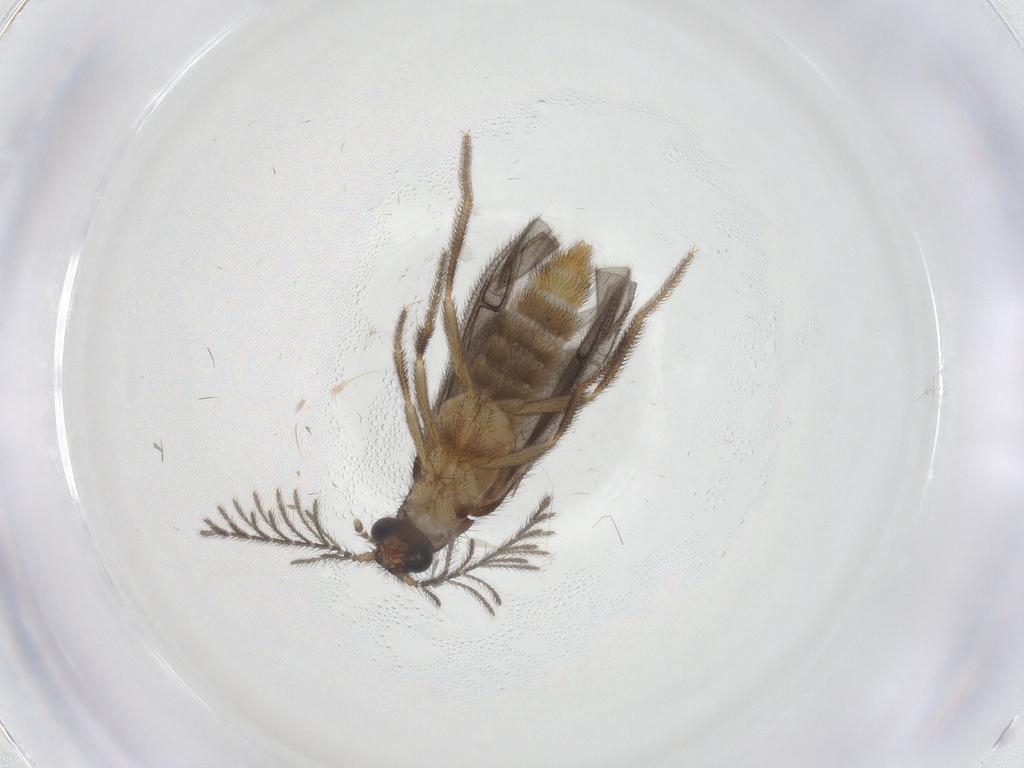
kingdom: Animalia
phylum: Arthropoda
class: Insecta
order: Coleoptera
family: Phengodidae
